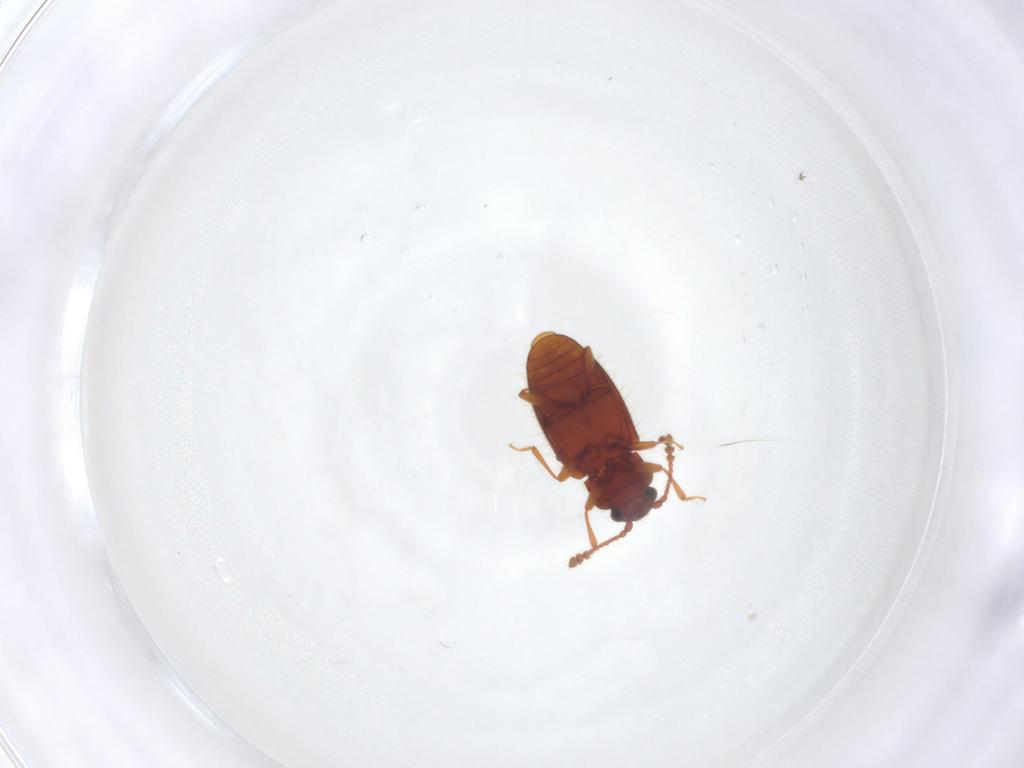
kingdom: Animalia
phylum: Arthropoda
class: Insecta
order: Coleoptera
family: Cryptophagidae
